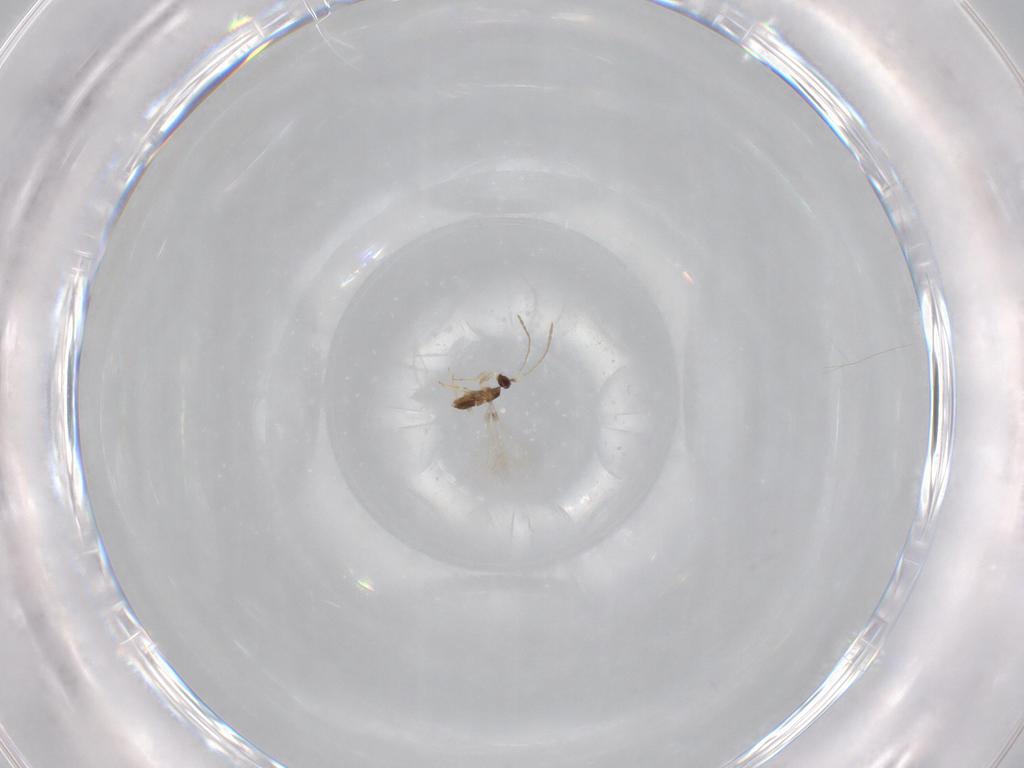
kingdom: Animalia
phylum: Arthropoda
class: Insecta
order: Hymenoptera
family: Mymaridae
